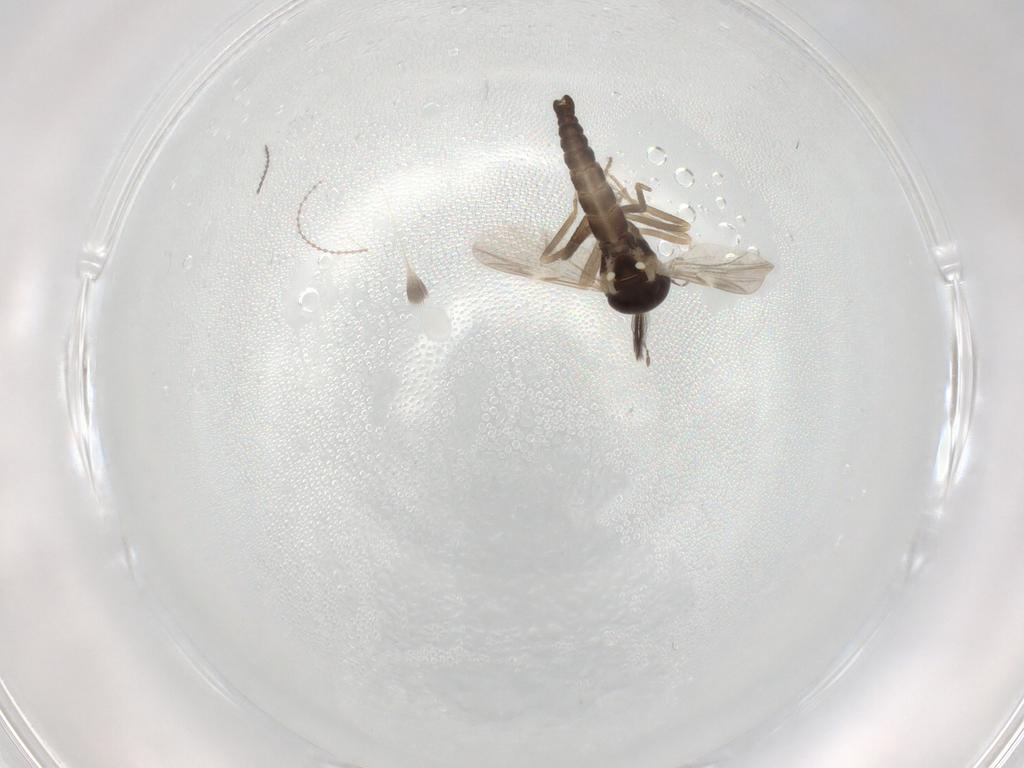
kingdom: Animalia
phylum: Arthropoda
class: Insecta
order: Diptera
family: Ceratopogonidae
